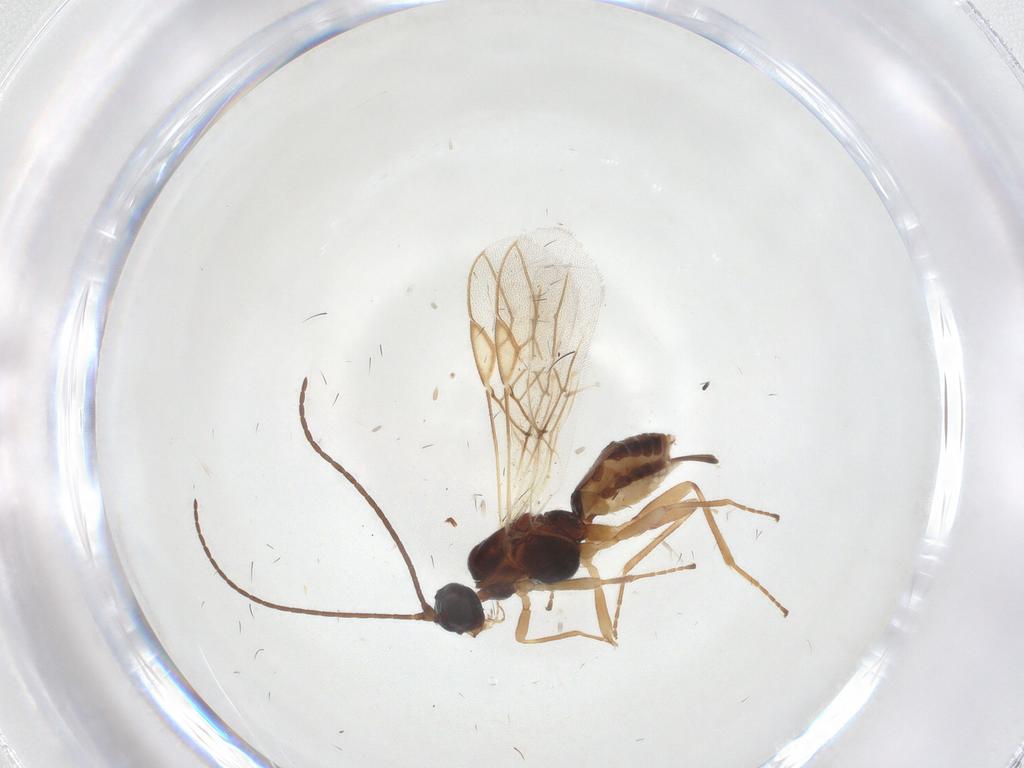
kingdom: Animalia
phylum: Arthropoda
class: Insecta
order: Hymenoptera
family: Braconidae
